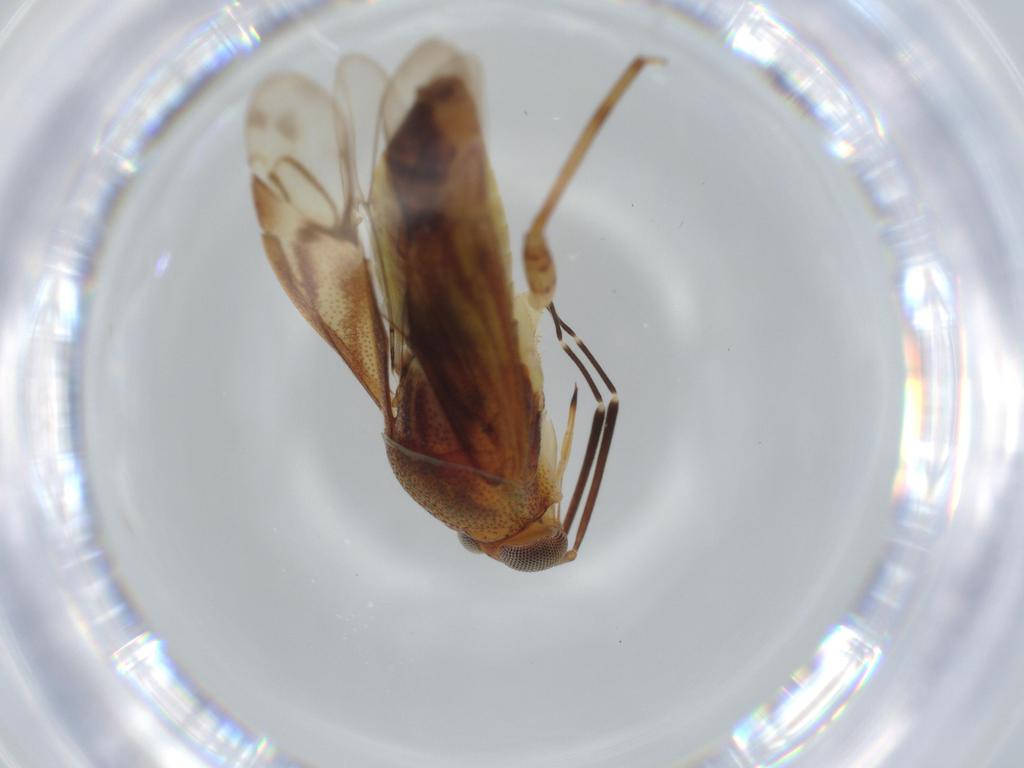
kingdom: Animalia
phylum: Arthropoda
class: Insecta
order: Hemiptera
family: Miridae
